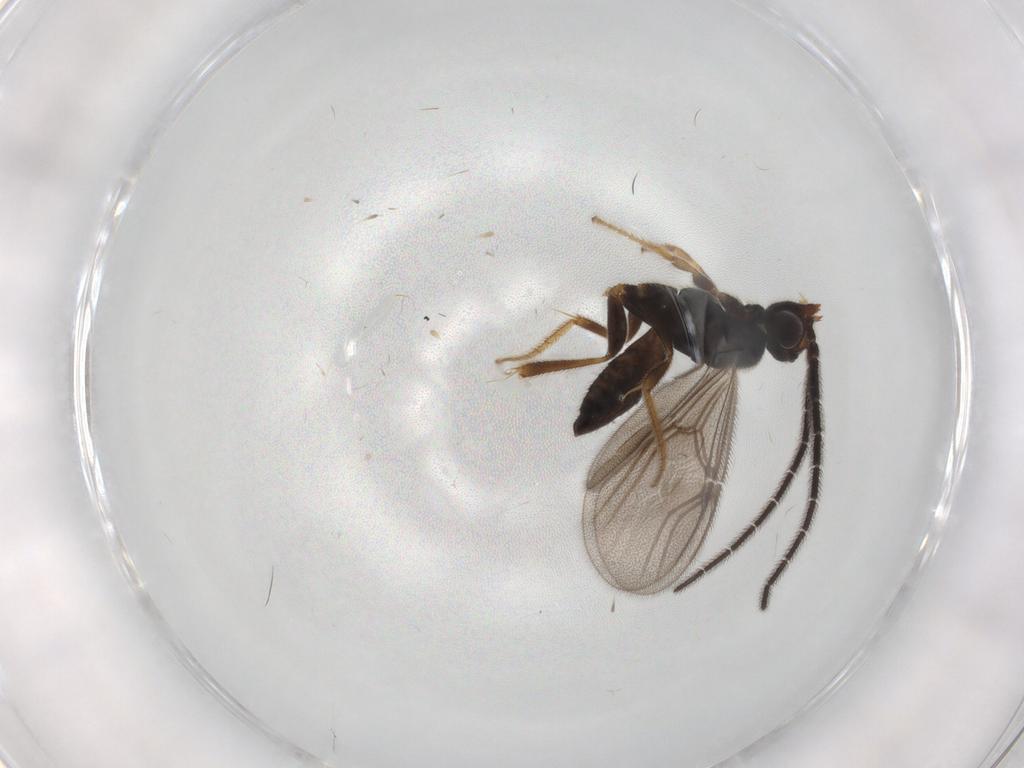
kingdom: Animalia
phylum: Arthropoda
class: Insecta
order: Hymenoptera
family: Dryinidae
